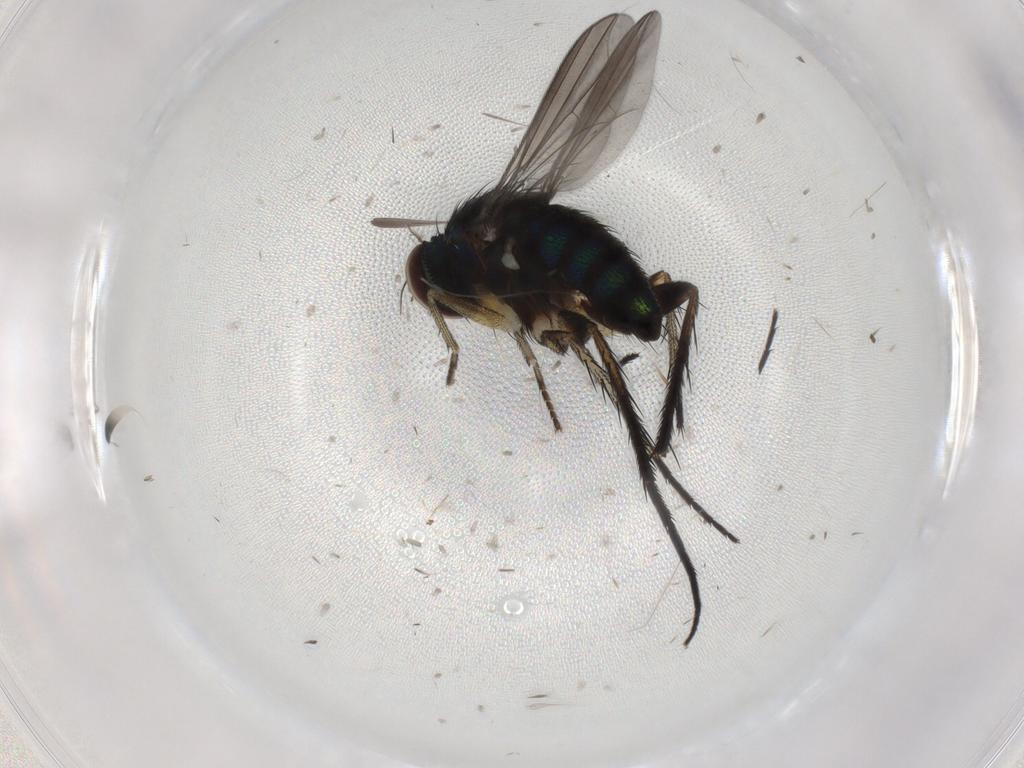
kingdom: Animalia
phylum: Arthropoda
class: Insecta
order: Diptera
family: Dolichopodidae
